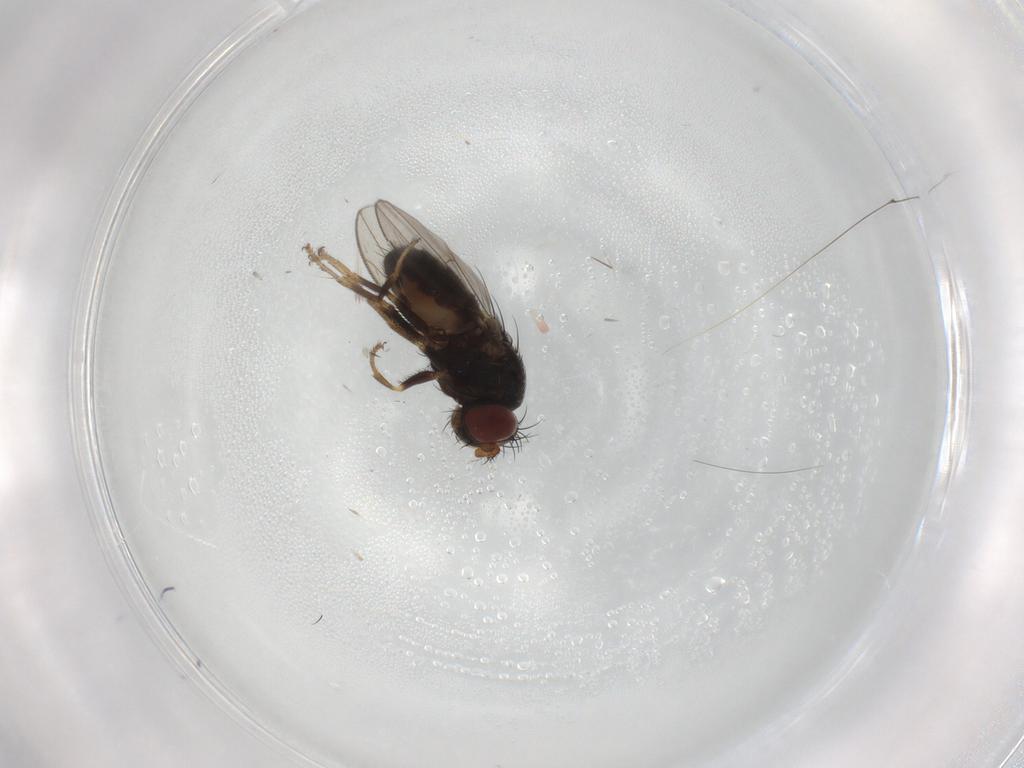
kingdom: Animalia
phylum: Arthropoda
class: Insecta
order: Diptera
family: Ephydridae
